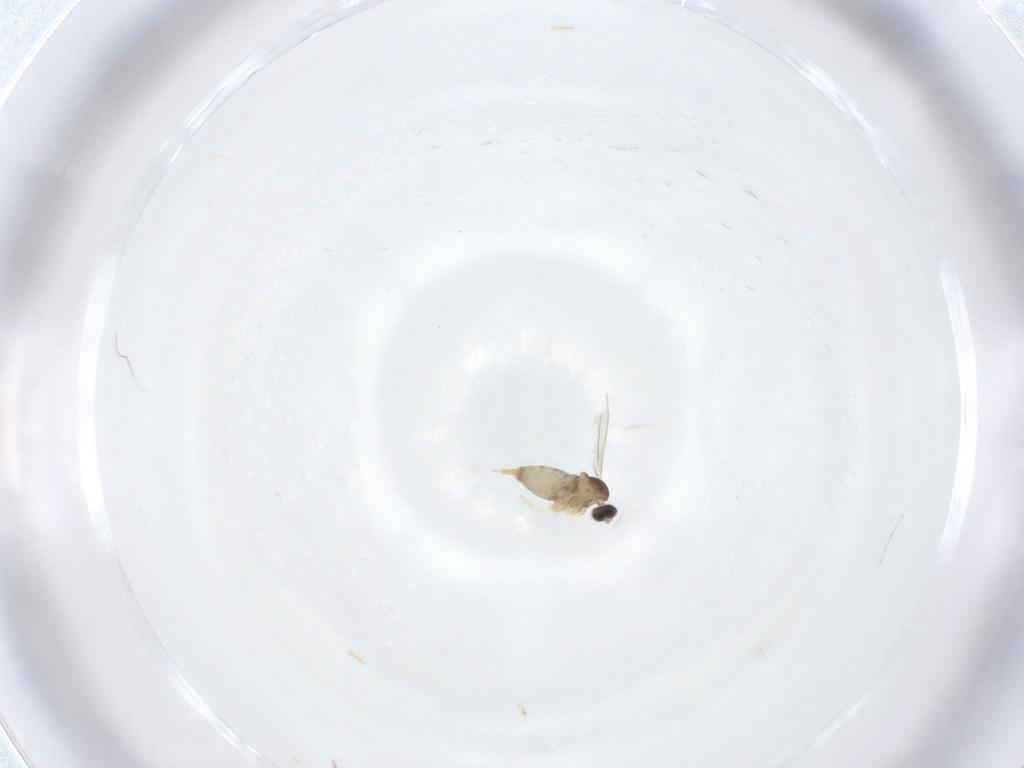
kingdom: Animalia
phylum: Arthropoda
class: Insecta
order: Diptera
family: Cecidomyiidae
